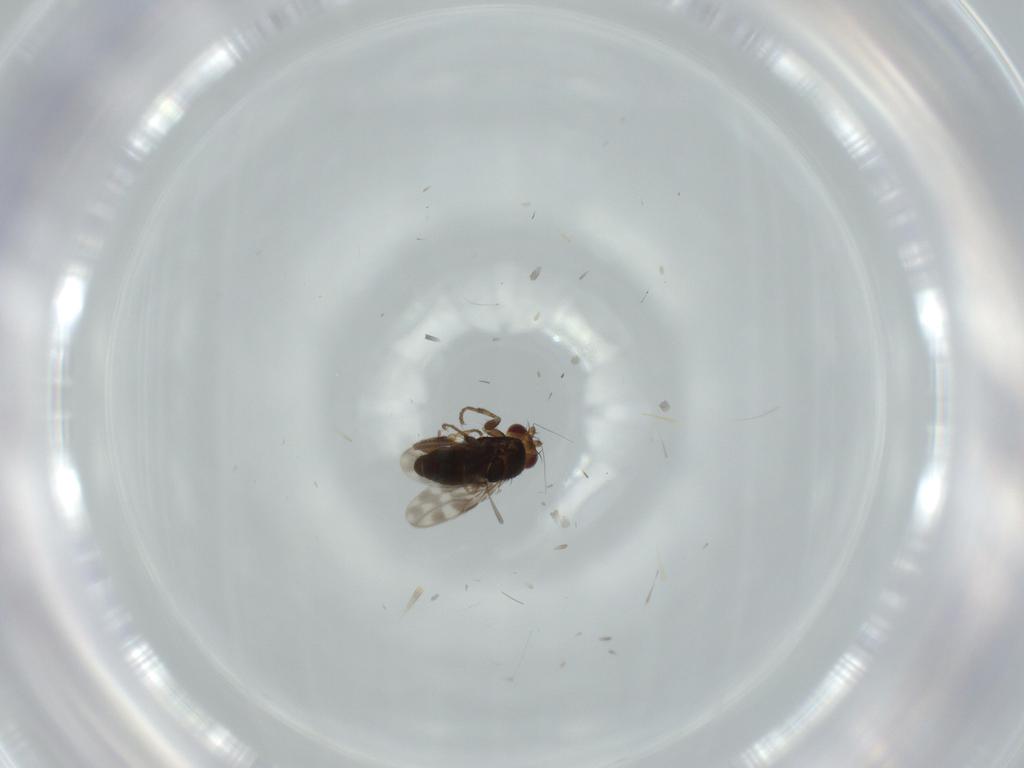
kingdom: Animalia
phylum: Arthropoda
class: Insecta
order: Diptera
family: Sphaeroceridae
